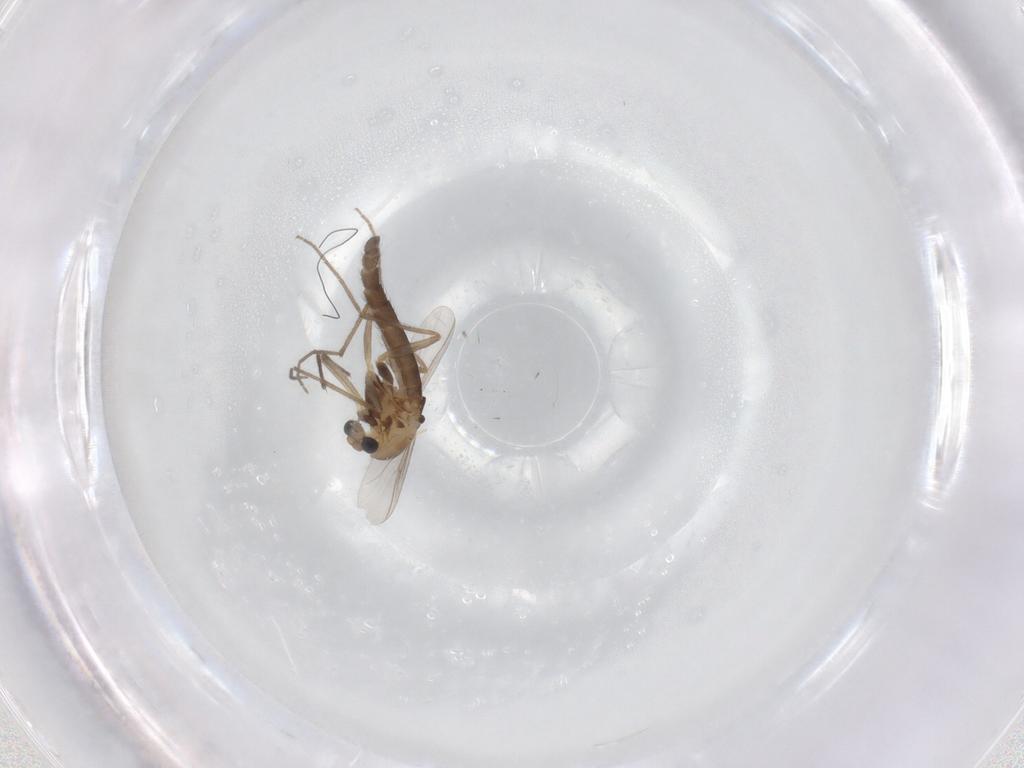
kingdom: Animalia
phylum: Arthropoda
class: Insecta
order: Diptera
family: Chironomidae
